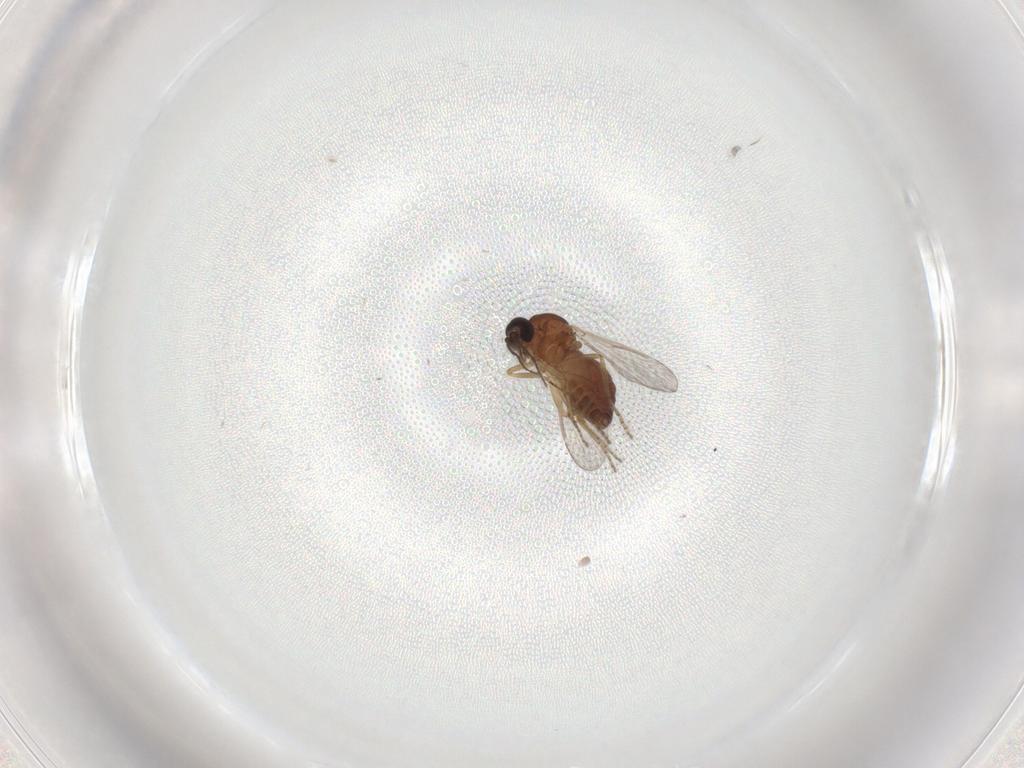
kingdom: Animalia
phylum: Arthropoda
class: Insecta
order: Diptera
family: Ceratopogonidae
